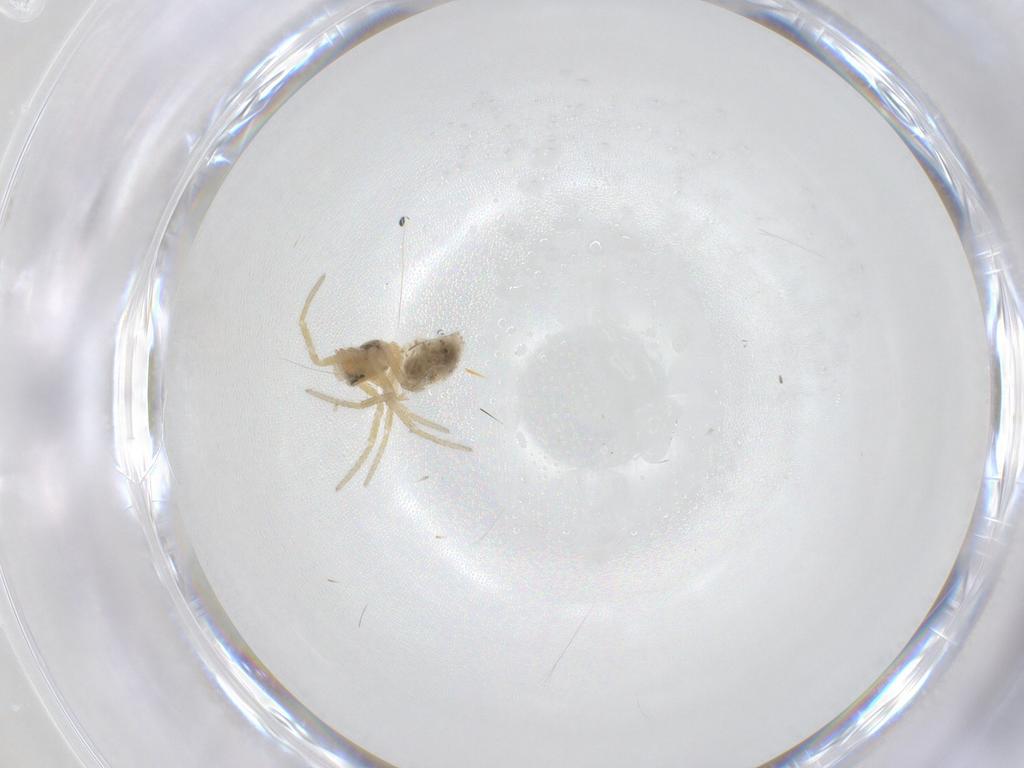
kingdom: Animalia
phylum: Arthropoda
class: Arachnida
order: Araneae
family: Linyphiidae
